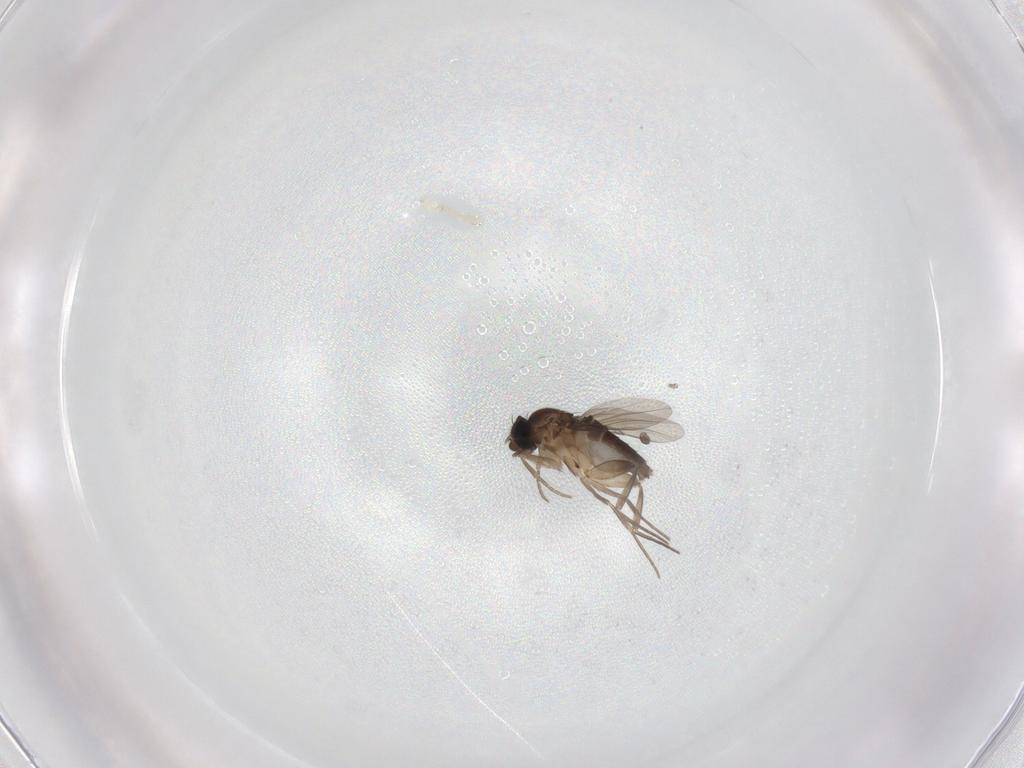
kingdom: Animalia
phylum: Arthropoda
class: Insecta
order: Diptera
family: Phoridae
